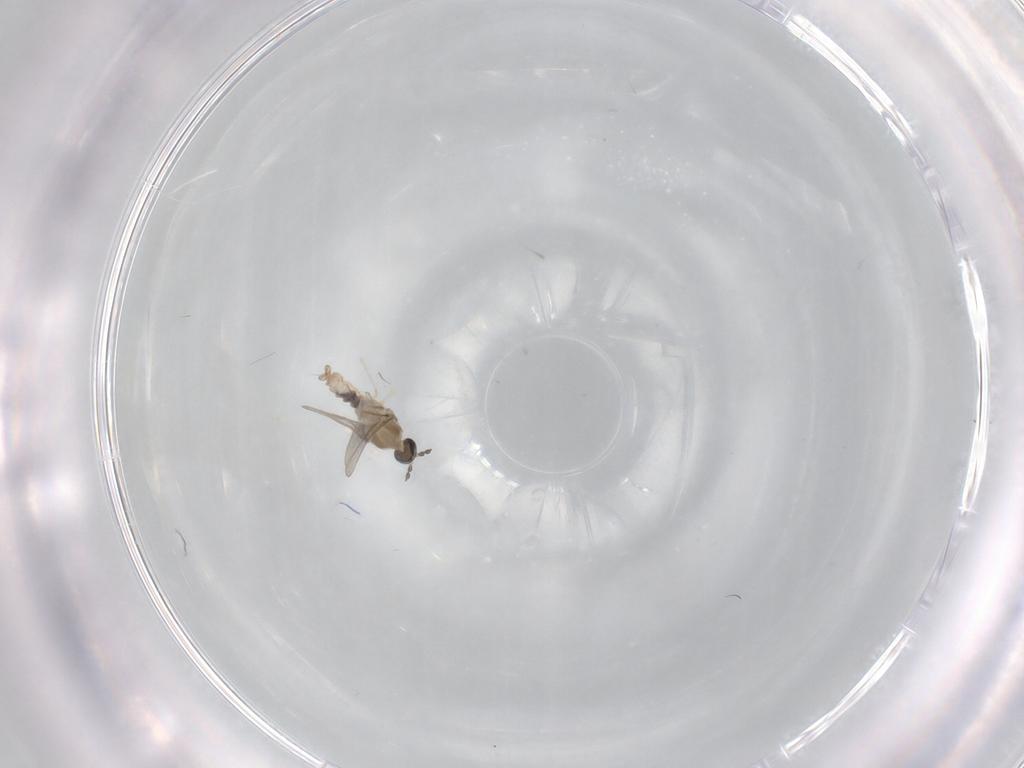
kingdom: Animalia
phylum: Arthropoda
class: Insecta
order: Diptera
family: Cecidomyiidae
